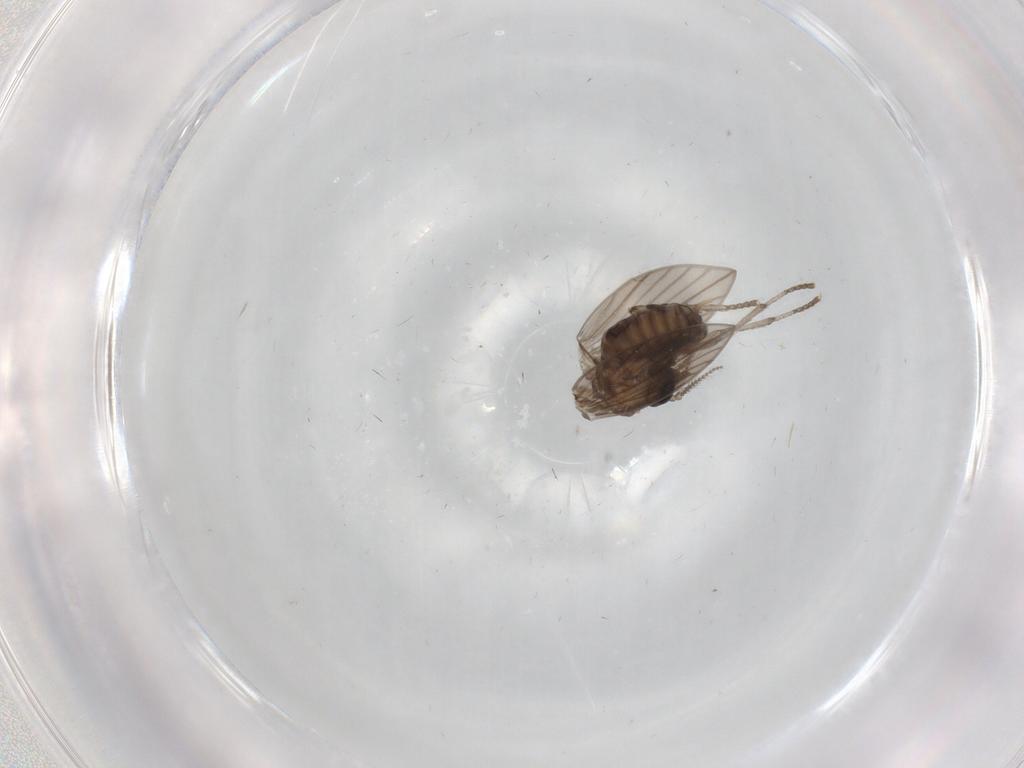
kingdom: Animalia
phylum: Arthropoda
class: Insecta
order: Diptera
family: Psychodidae
